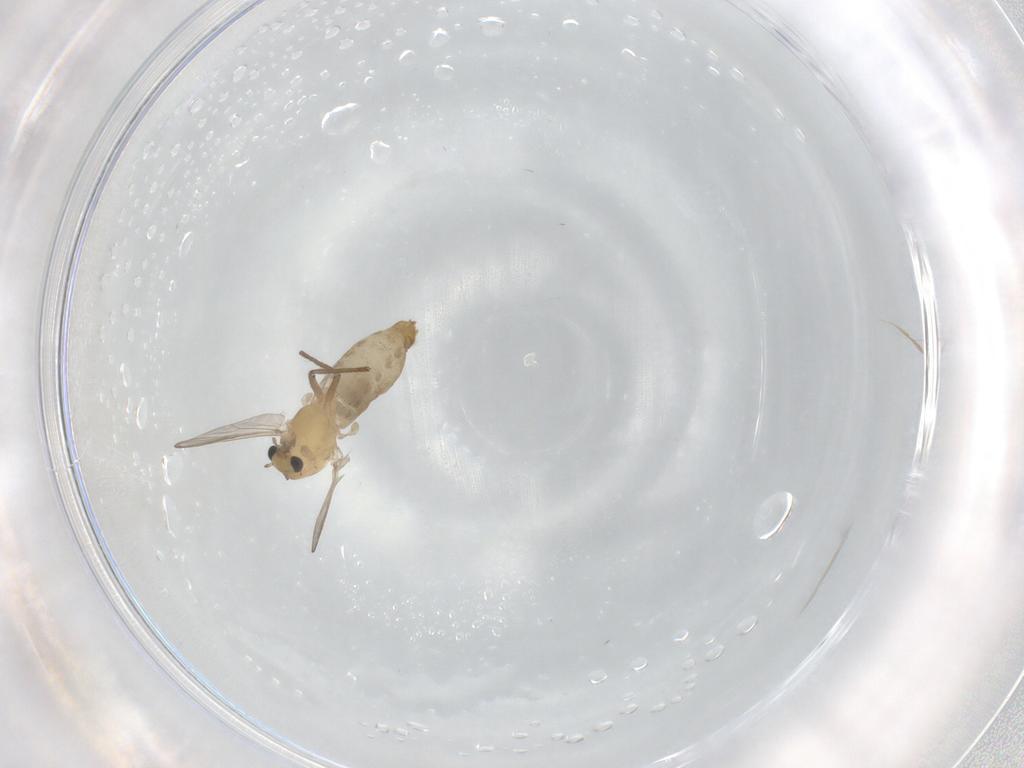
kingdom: Animalia
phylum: Arthropoda
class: Insecta
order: Diptera
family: Chironomidae
